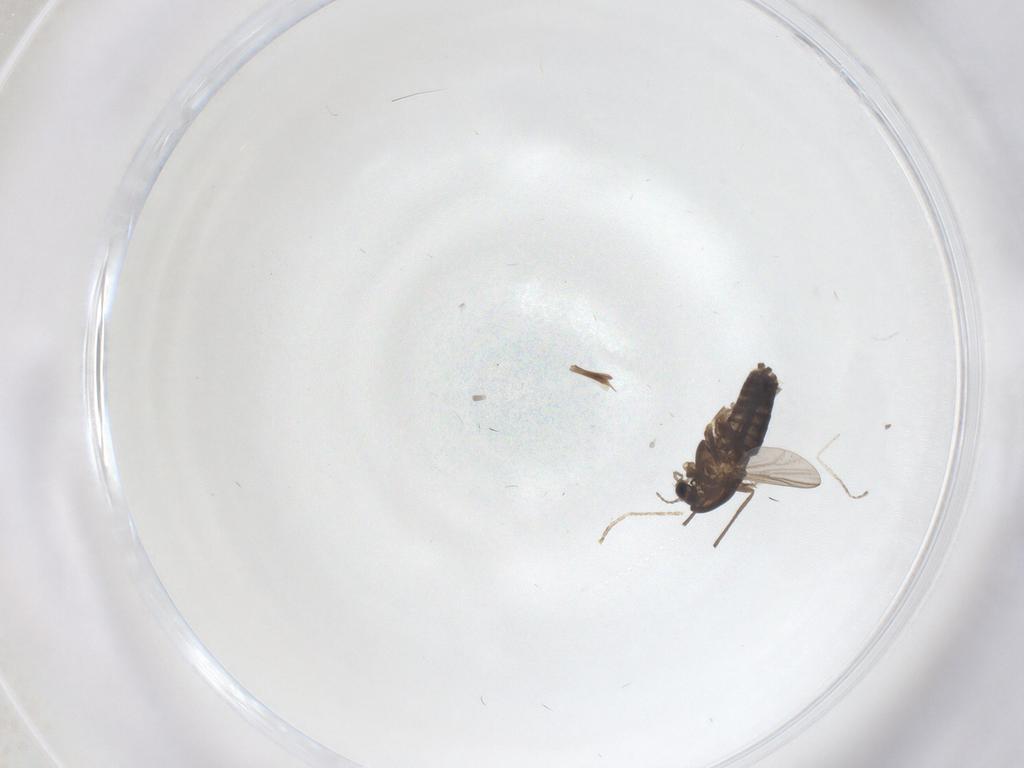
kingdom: Animalia
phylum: Arthropoda
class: Insecta
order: Diptera
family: Chironomidae
